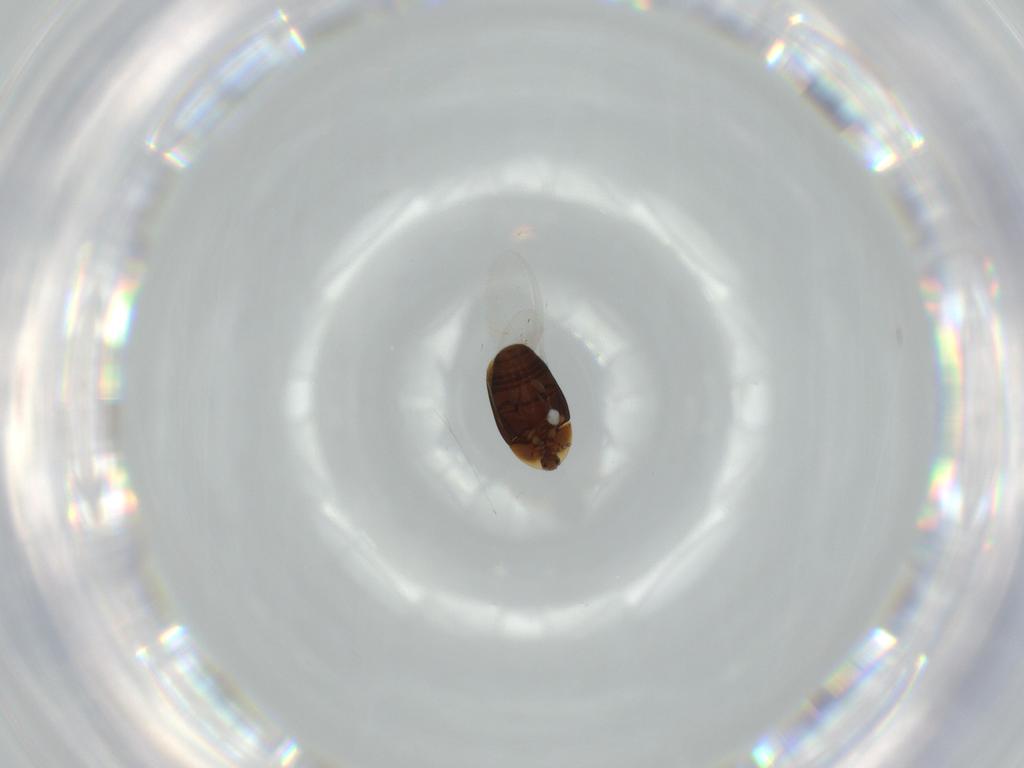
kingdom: Animalia
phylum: Arthropoda
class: Insecta
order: Coleoptera
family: Corylophidae
